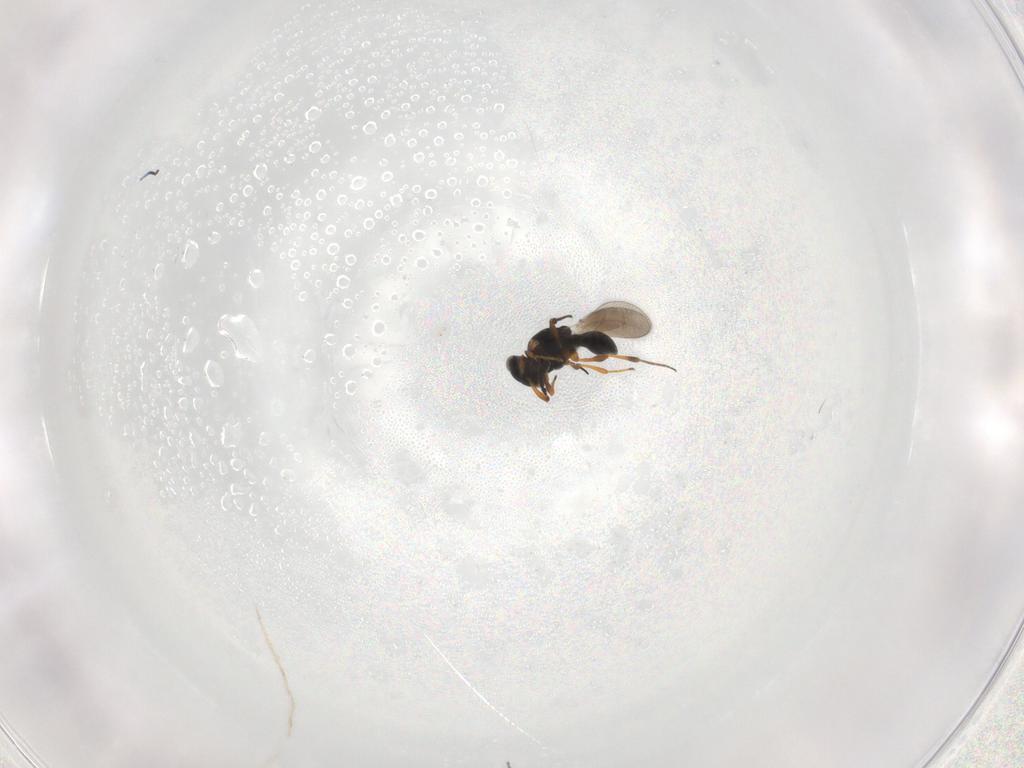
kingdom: Animalia
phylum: Arthropoda
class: Insecta
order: Hymenoptera
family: Platygastridae
